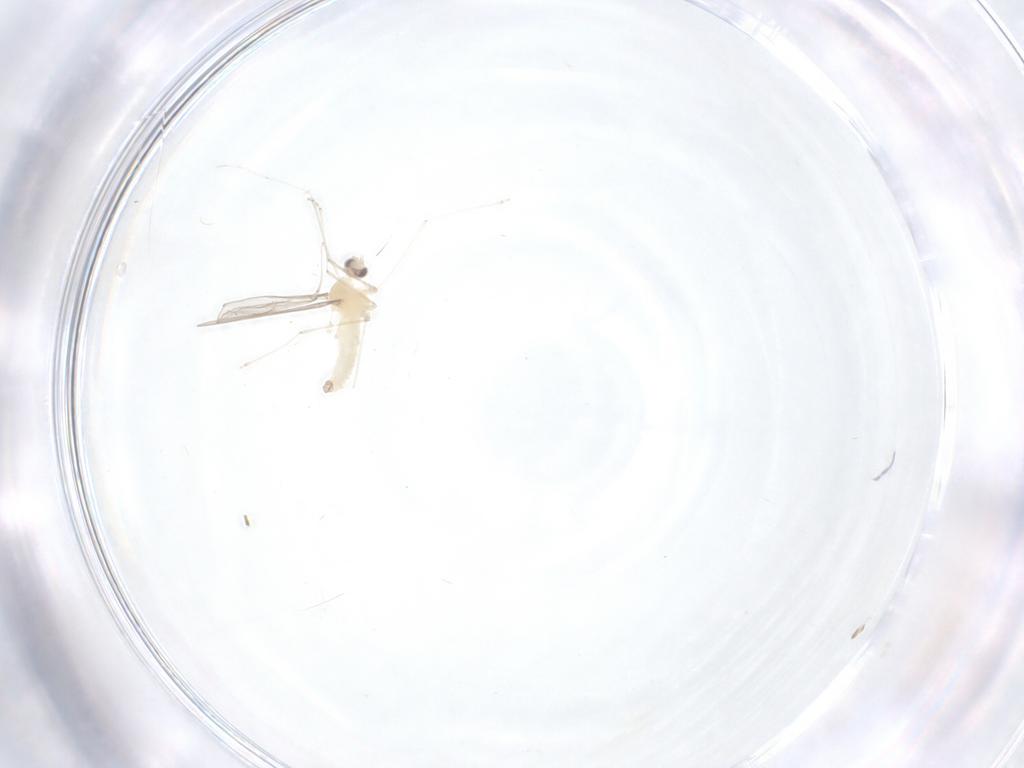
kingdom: Animalia
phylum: Arthropoda
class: Insecta
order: Diptera
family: Cecidomyiidae
